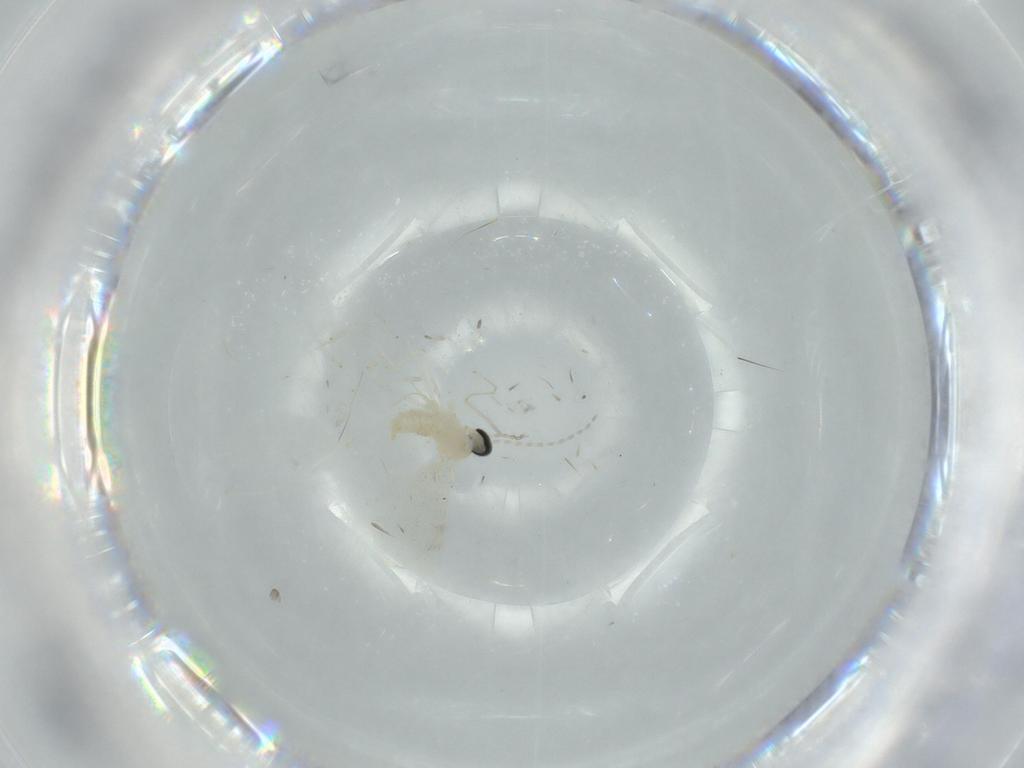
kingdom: Animalia
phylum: Arthropoda
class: Insecta
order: Diptera
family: Cecidomyiidae
